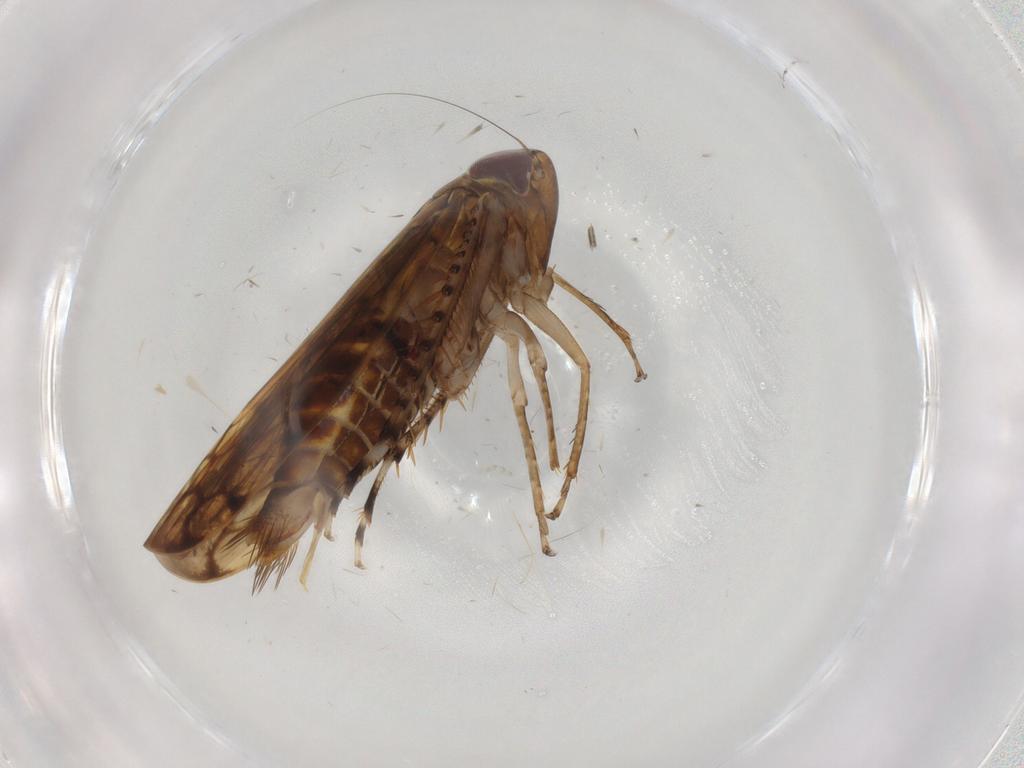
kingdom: Animalia
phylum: Arthropoda
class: Insecta
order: Hemiptera
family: Cicadellidae
